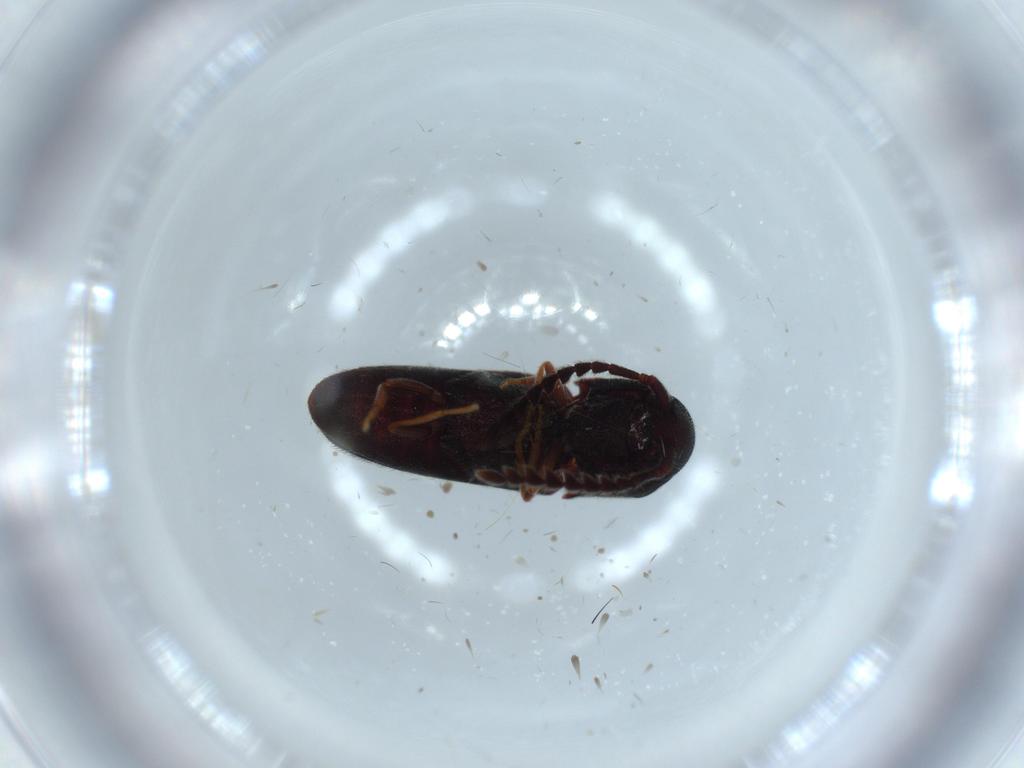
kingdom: Animalia
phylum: Arthropoda
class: Insecta
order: Coleoptera
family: Eucnemidae
